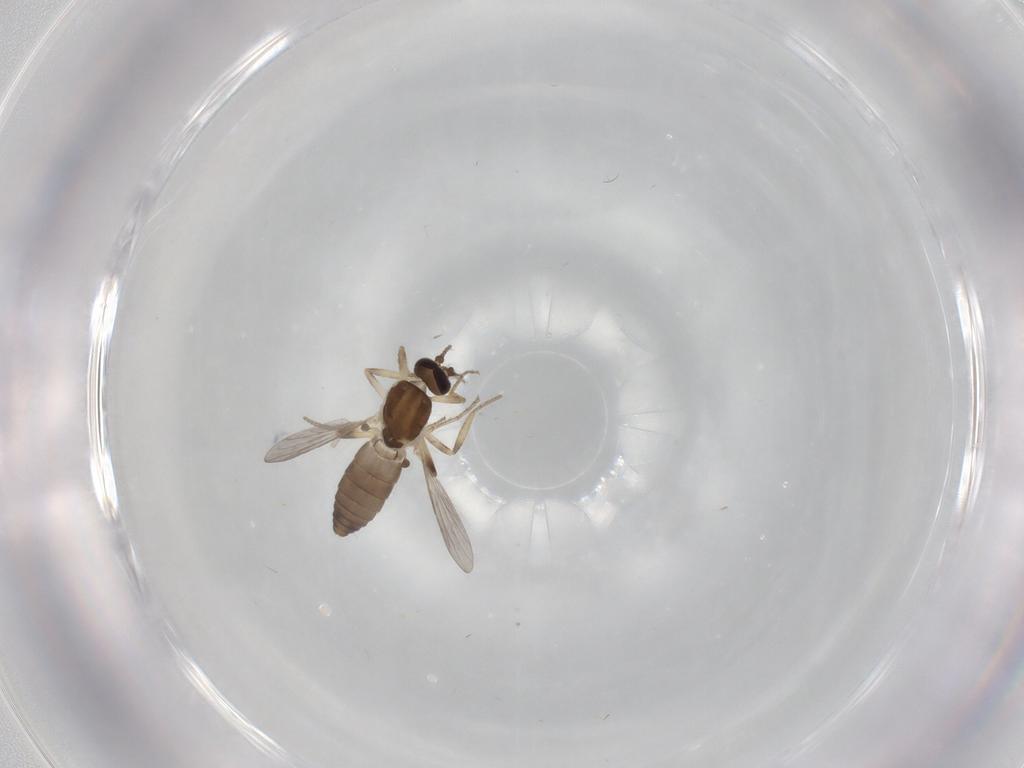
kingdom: Animalia
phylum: Arthropoda
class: Insecta
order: Diptera
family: Ceratopogonidae
